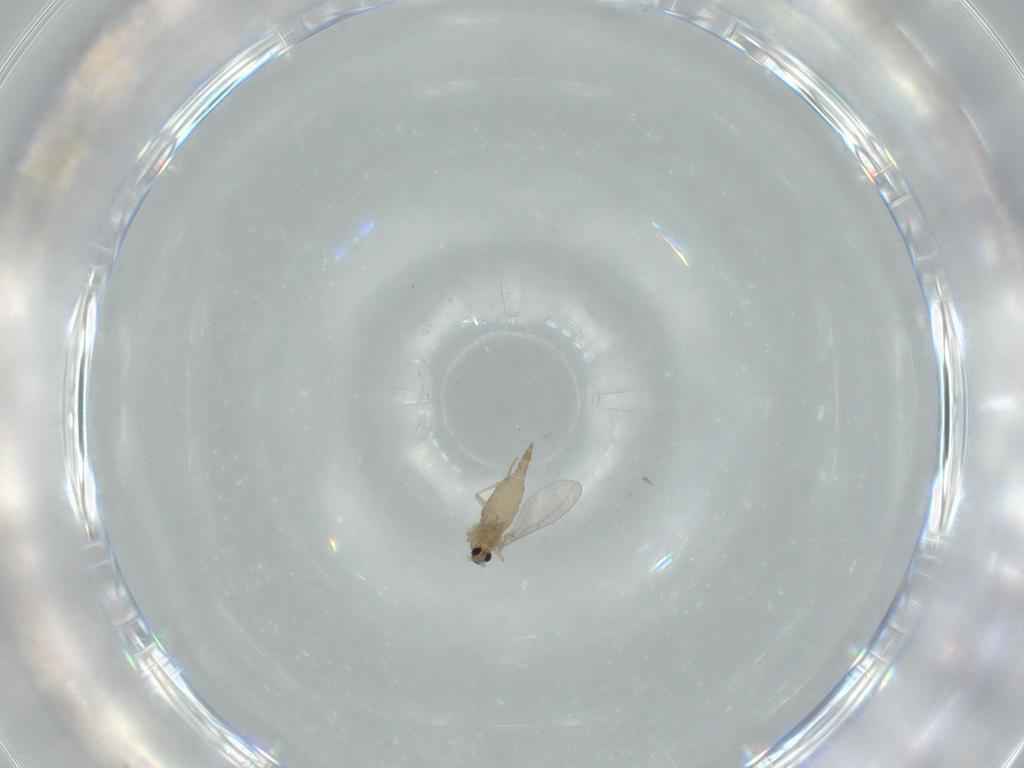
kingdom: Animalia
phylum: Arthropoda
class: Insecta
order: Diptera
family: Cecidomyiidae
